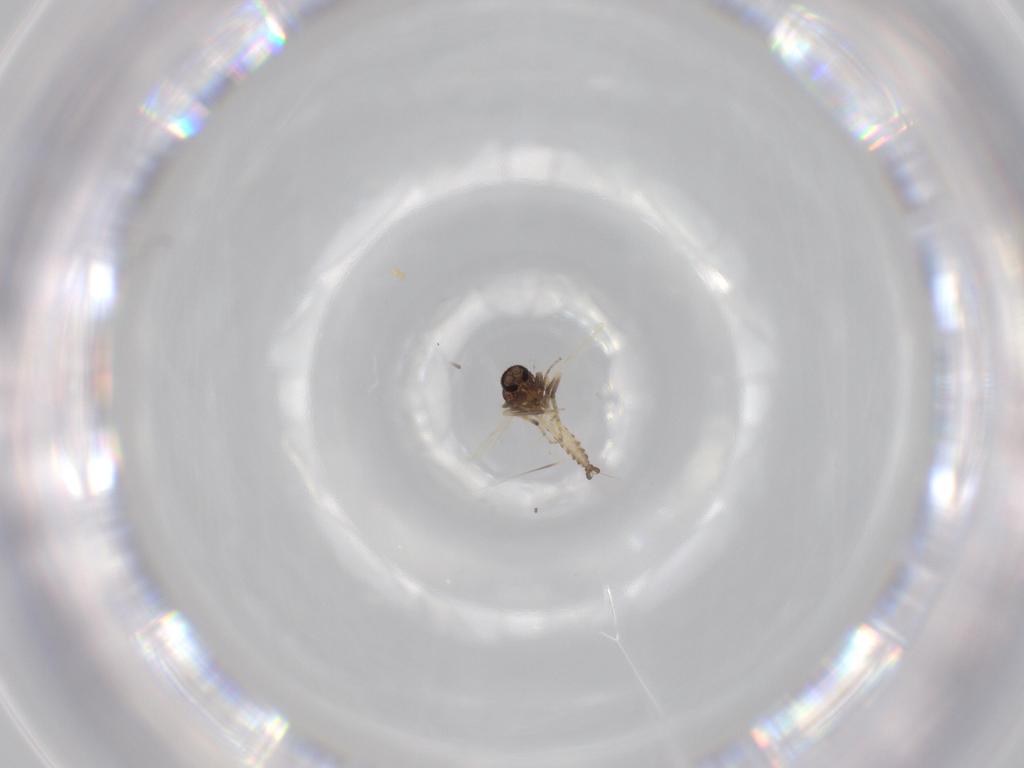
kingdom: Animalia
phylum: Arthropoda
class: Insecta
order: Diptera
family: Ceratopogonidae
